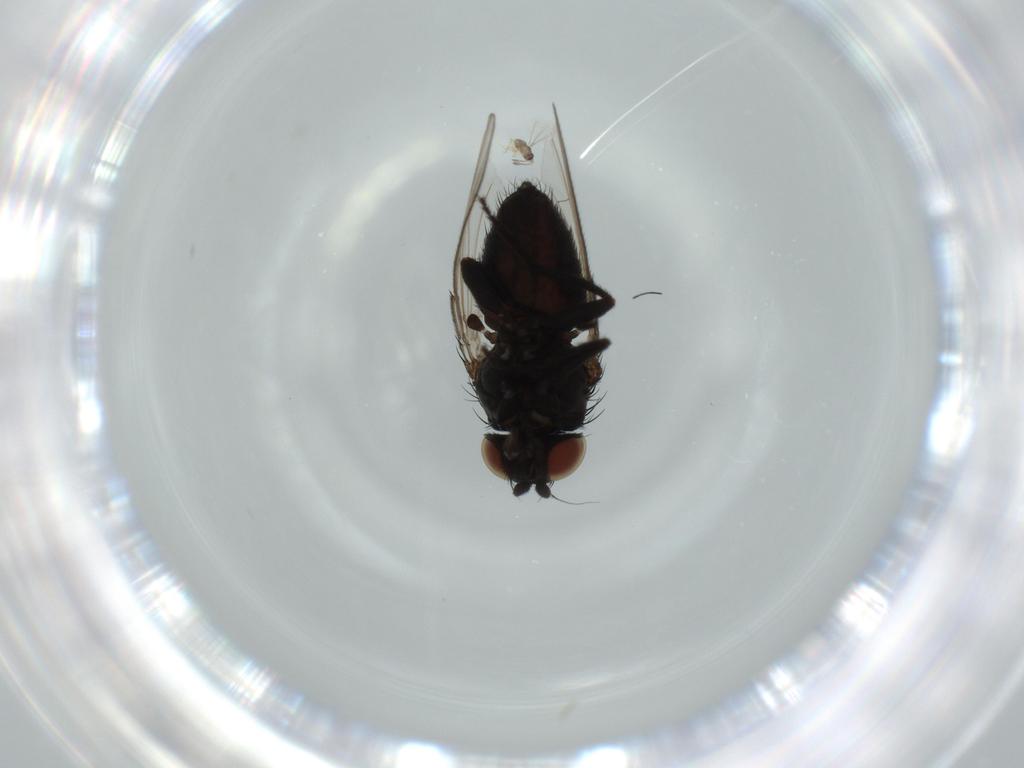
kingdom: Animalia
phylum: Arthropoda
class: Insecta
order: Diptera
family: Milichiidae
